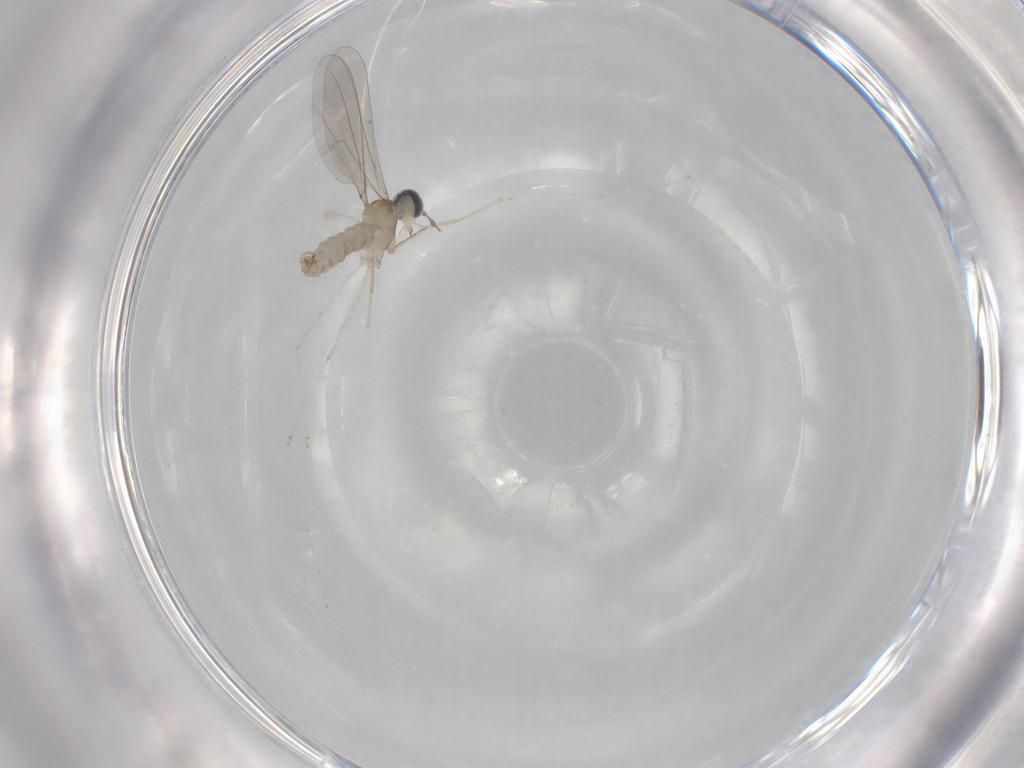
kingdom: Animalia
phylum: Arthropoda
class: Insecta
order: Diptera
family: Cecidomyiidae
